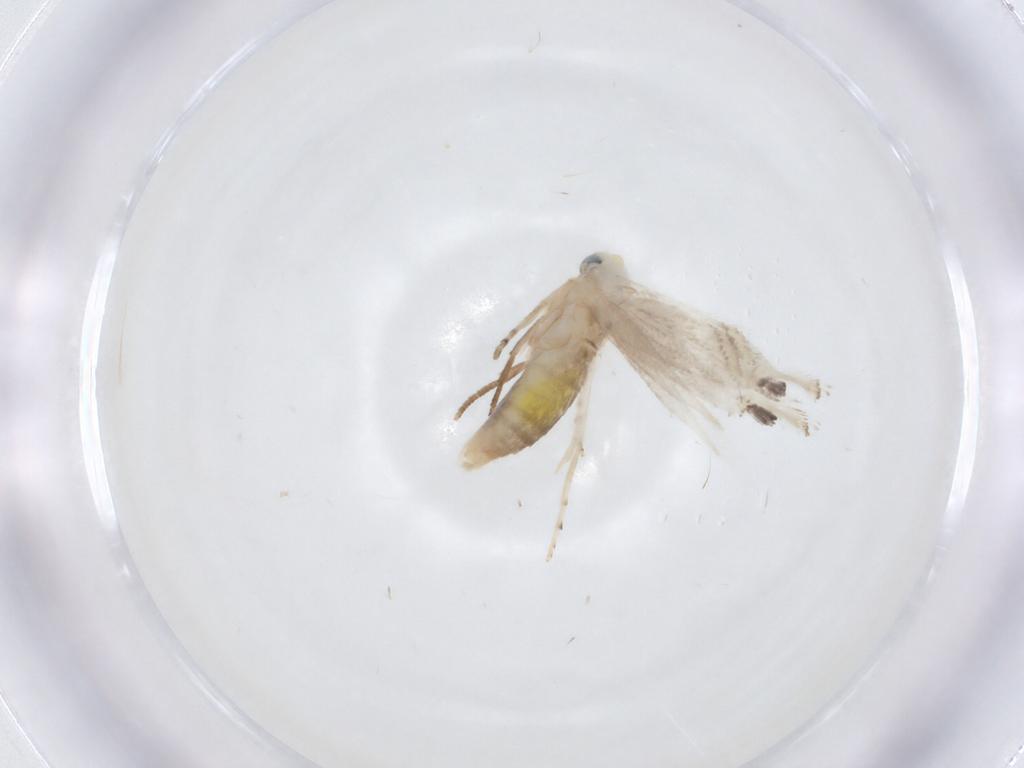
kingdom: Animalia
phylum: Arthropoda
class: Insecta
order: Lepidoptera
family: Lyonetiidae
